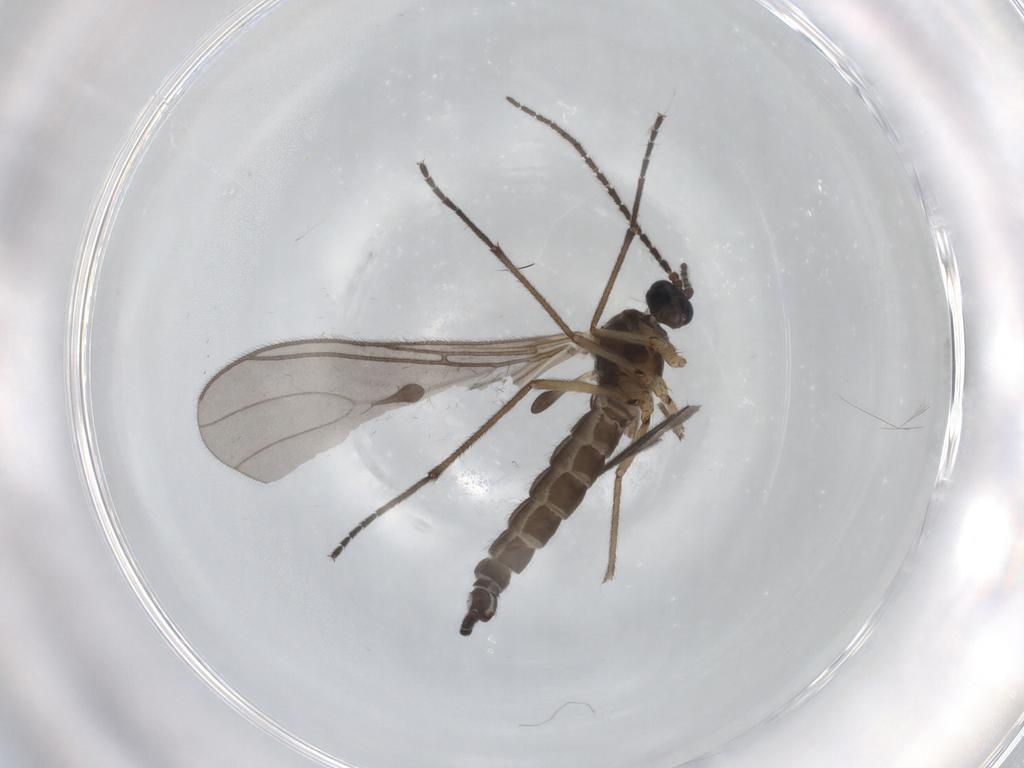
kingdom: Animalia
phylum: Arthropoda
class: Insecta
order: Diptera
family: Sciaridae
